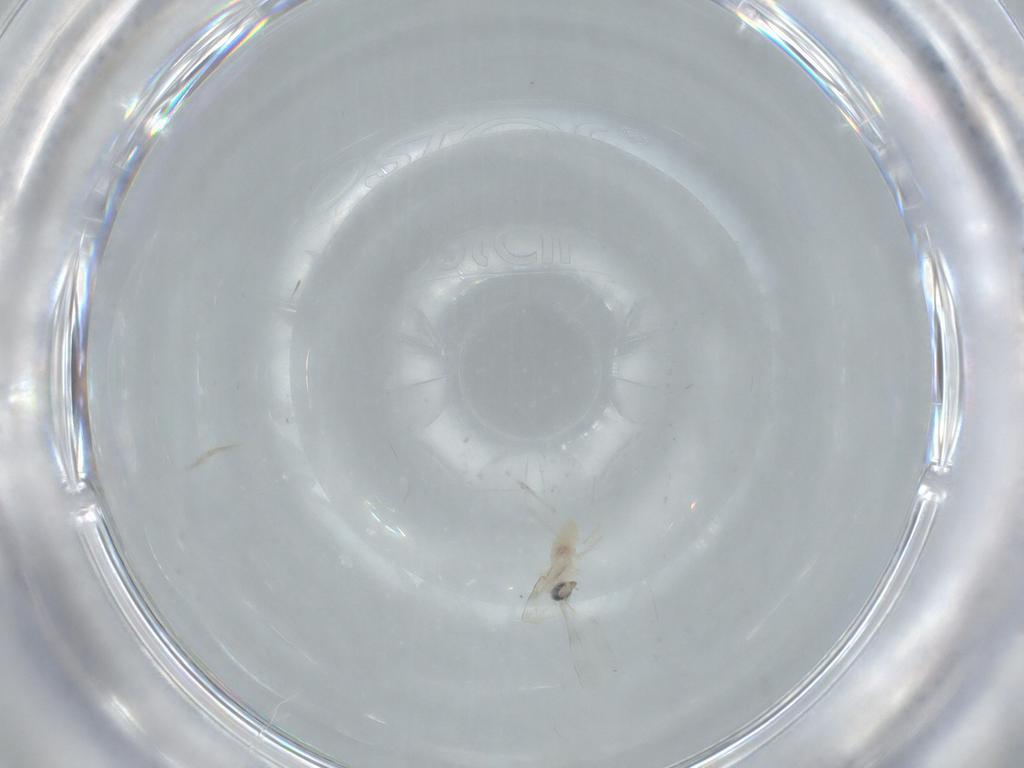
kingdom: Animalia
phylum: Arthropoda
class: Insecta
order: Diptera
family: Cecidomyiidae
